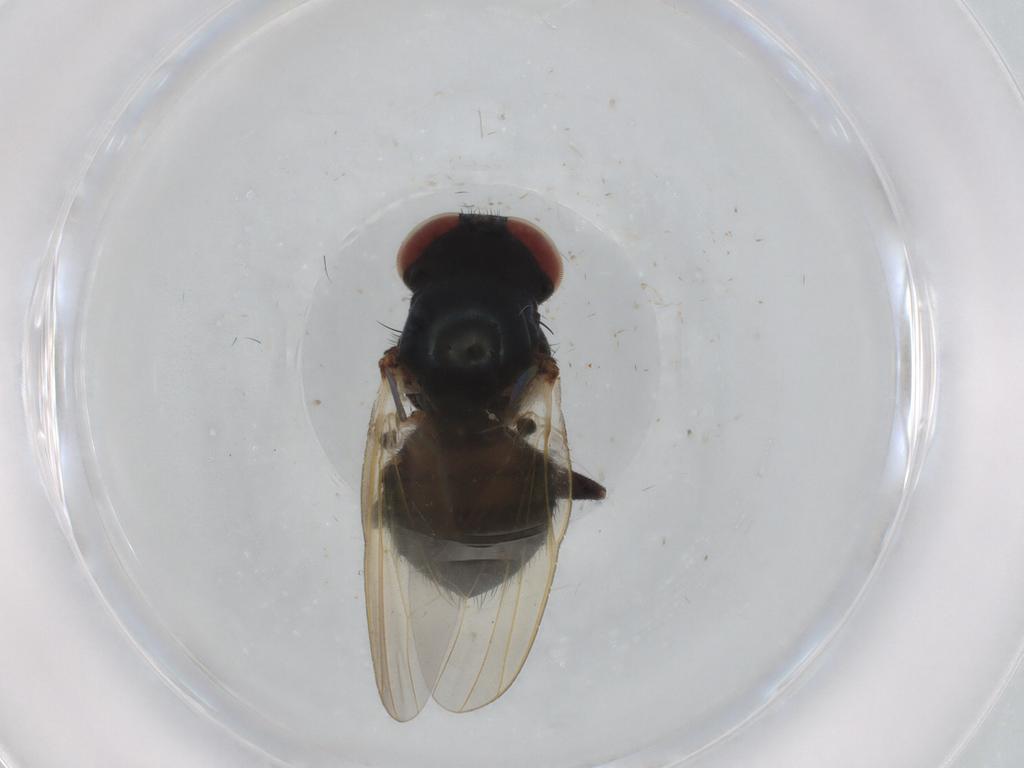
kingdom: Animalia
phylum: Arthropoda
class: Insecta
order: Diptera
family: Lonchaeidae
